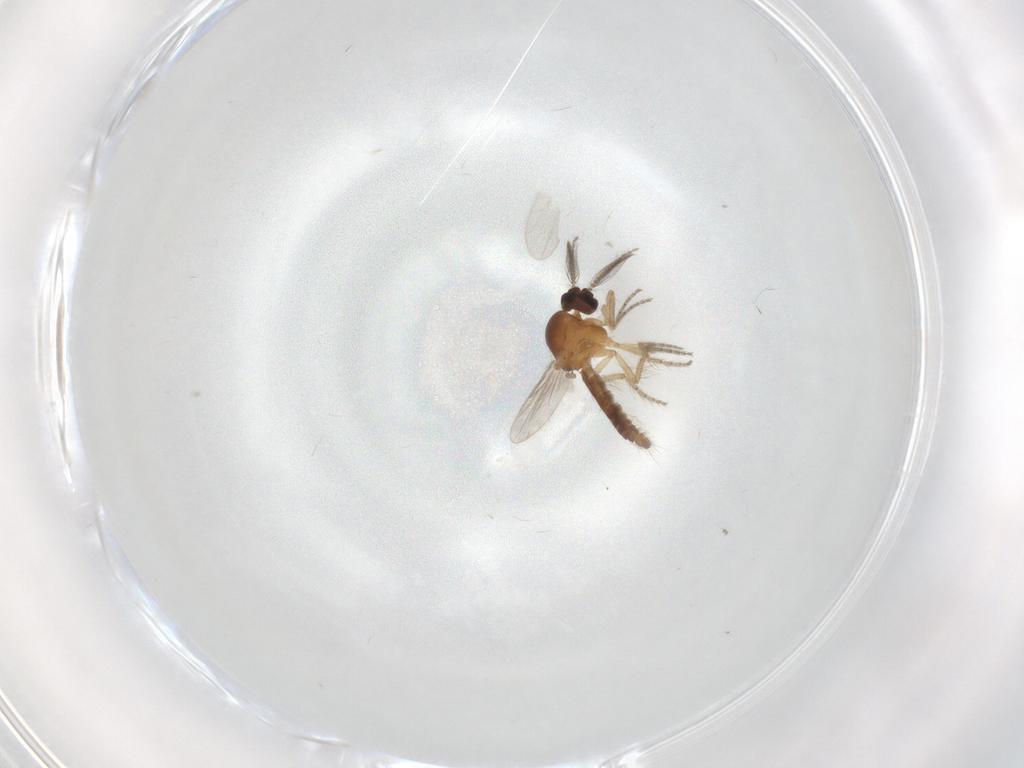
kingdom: Animalia
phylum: Arthropoda
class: Insecta
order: Diptera
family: Ceratopogonidae
